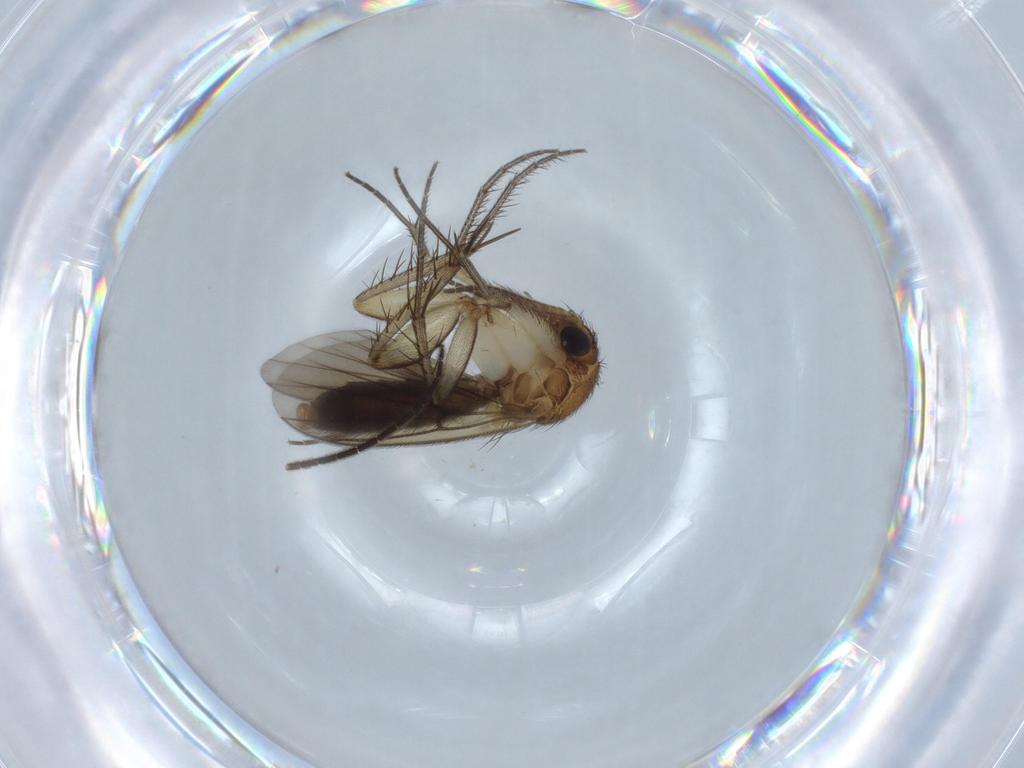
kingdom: Animalia
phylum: Arthropoda
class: Insecta
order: Diptera
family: Mycetophilidae
